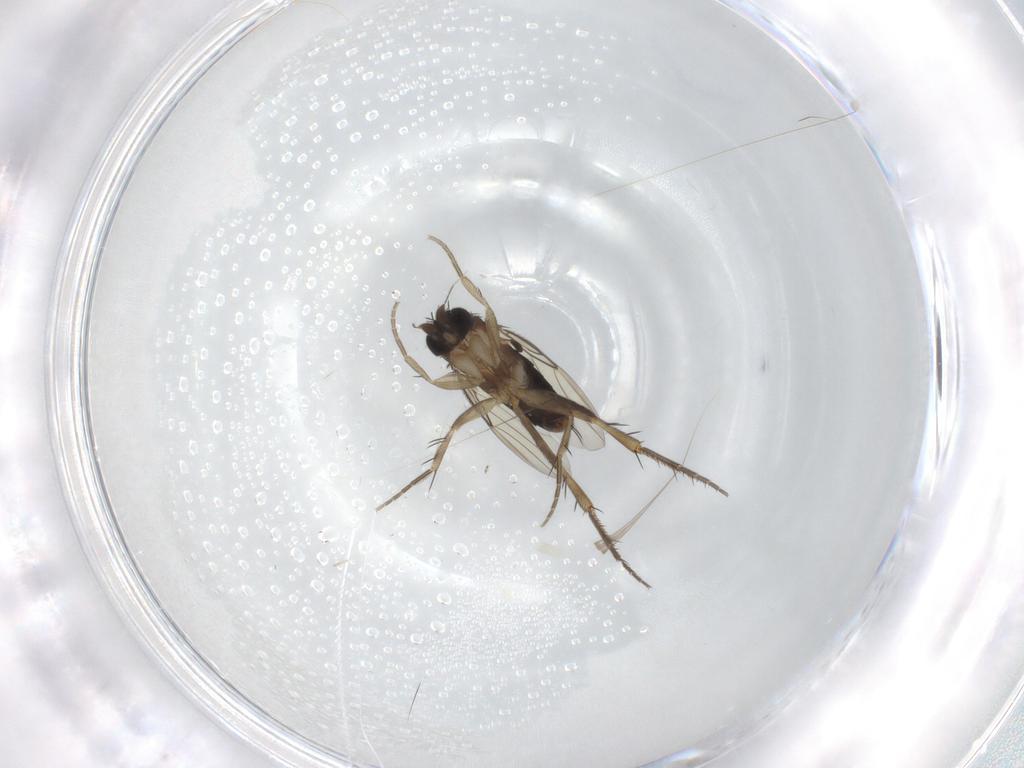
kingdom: Animalia
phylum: Arthropoda
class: Insecta
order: Diptera
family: Phoridae
